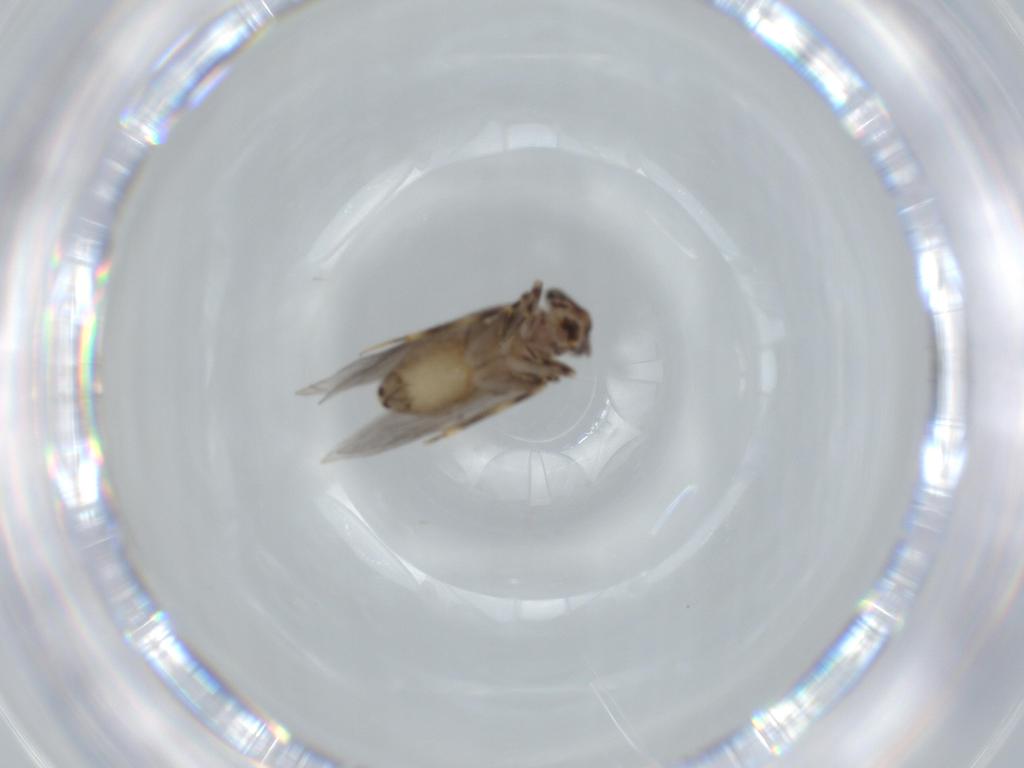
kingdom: Animalia
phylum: Arthropoda
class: Insecta
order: Psocodea
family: Lepidopsocidae
